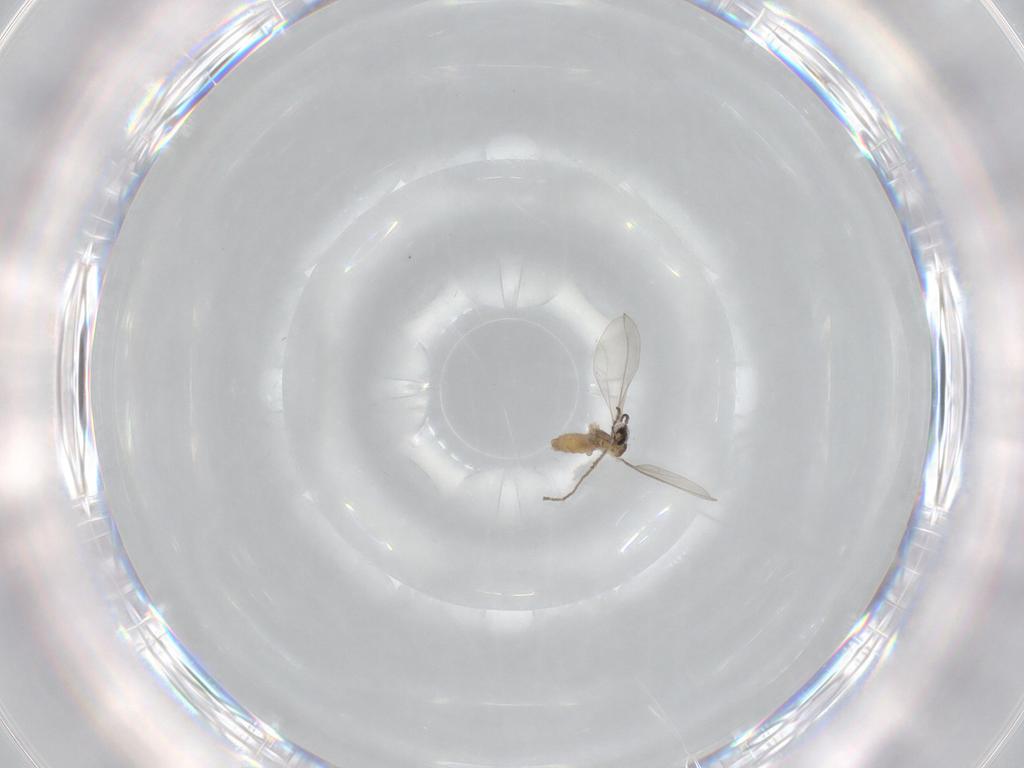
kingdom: Animalia
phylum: Arthropoda
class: Insecta
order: Diptera
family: Cecidomyiidae
